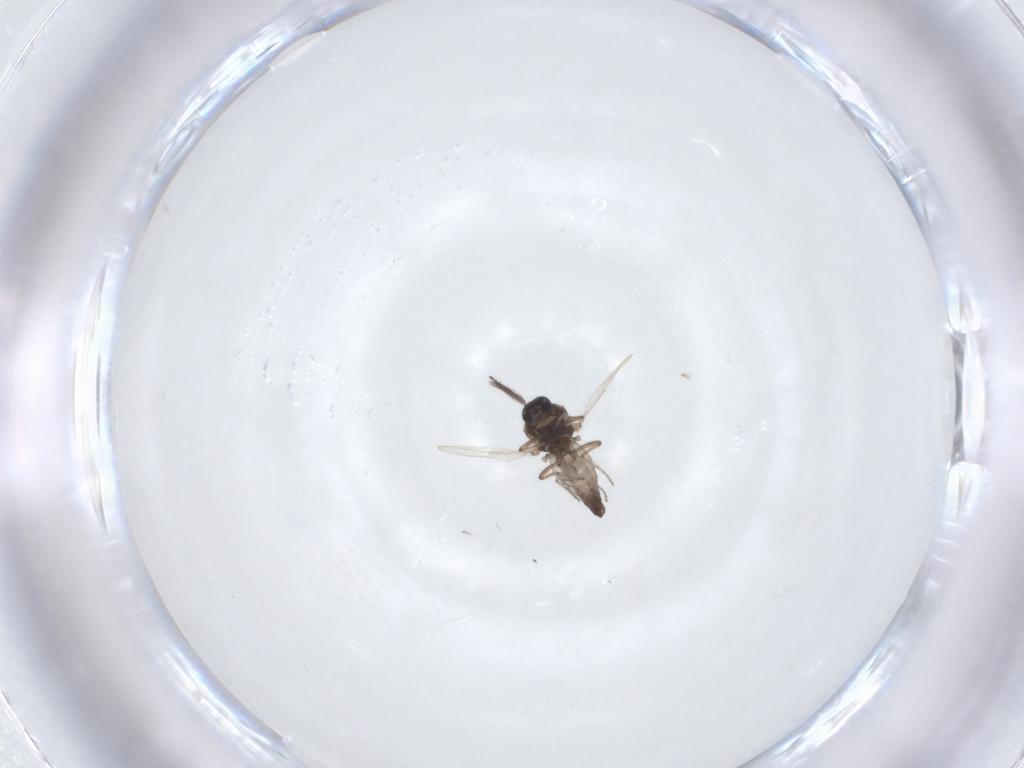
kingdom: Animalia
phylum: Arthropoda
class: Insecta
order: Diptera
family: Ceratopogonidae
